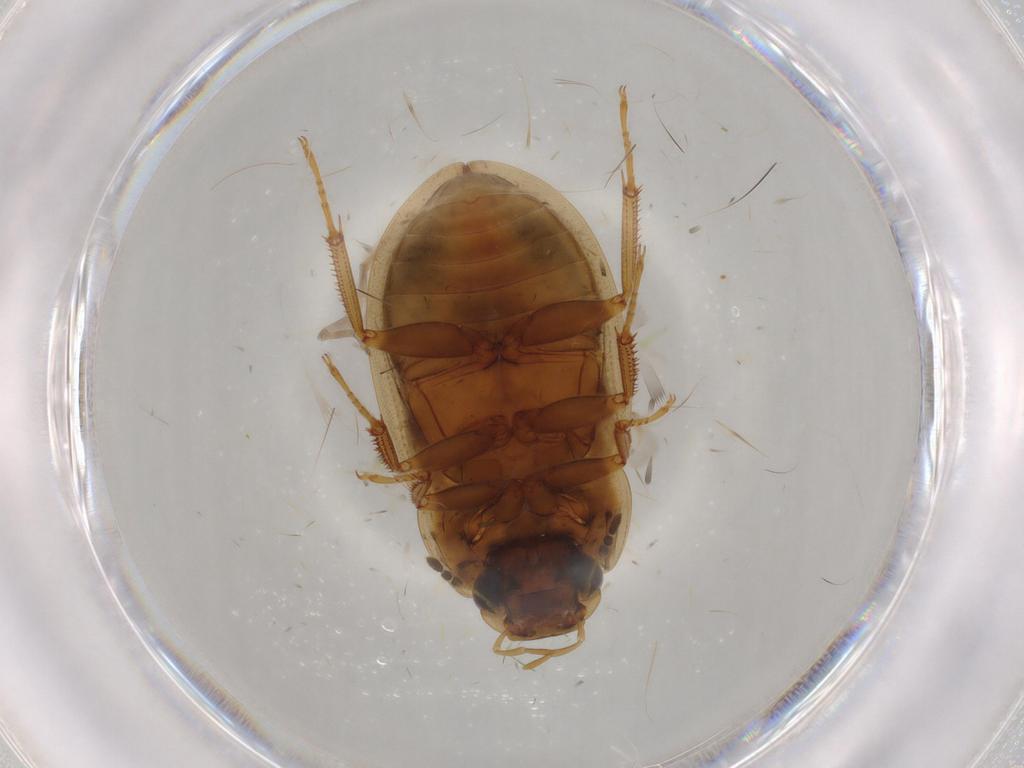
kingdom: Animalia
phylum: Arthropoda
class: Insecta
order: Coleoptera
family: Hydrophilidae
